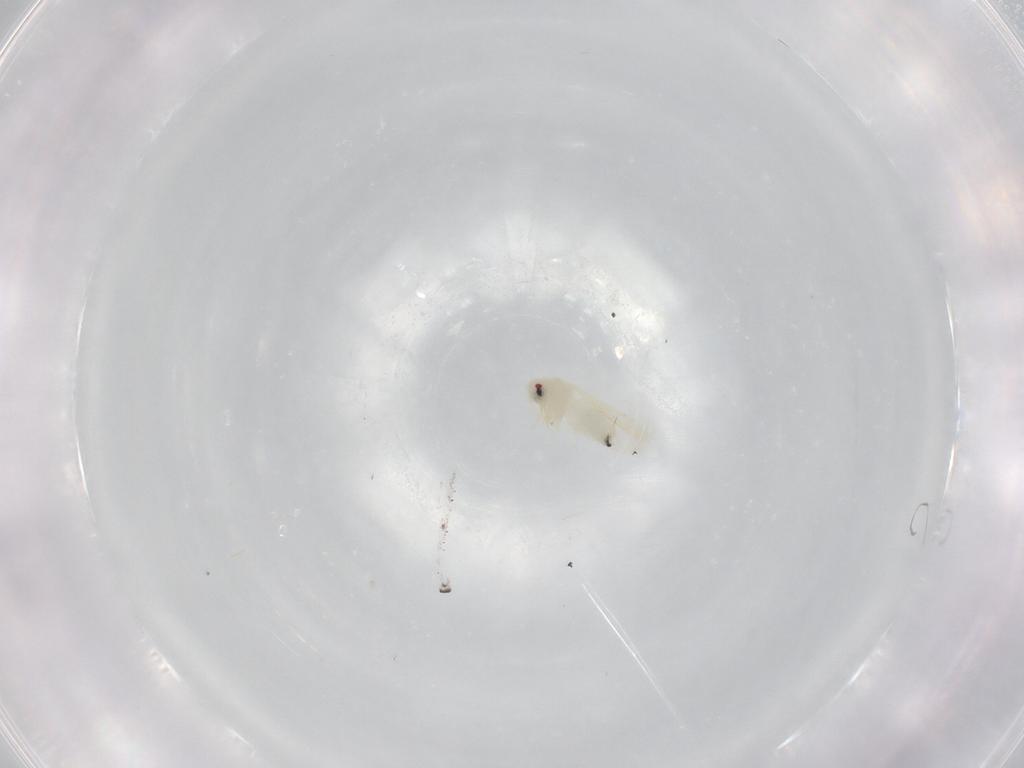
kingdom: Animalia
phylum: Arthropoda
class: Insecta
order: Hemiptera
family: Aleyrodidae
